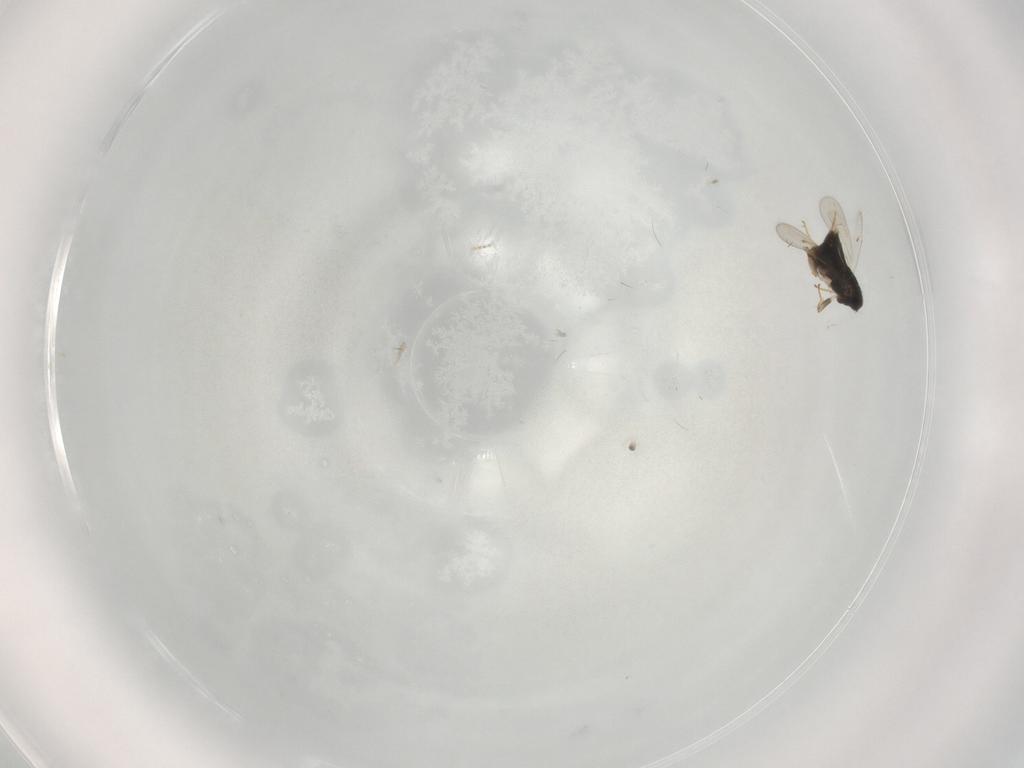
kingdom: Animalia
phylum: Arthropoda
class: Insecta
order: Hymenoptera
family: Aphelinidae
